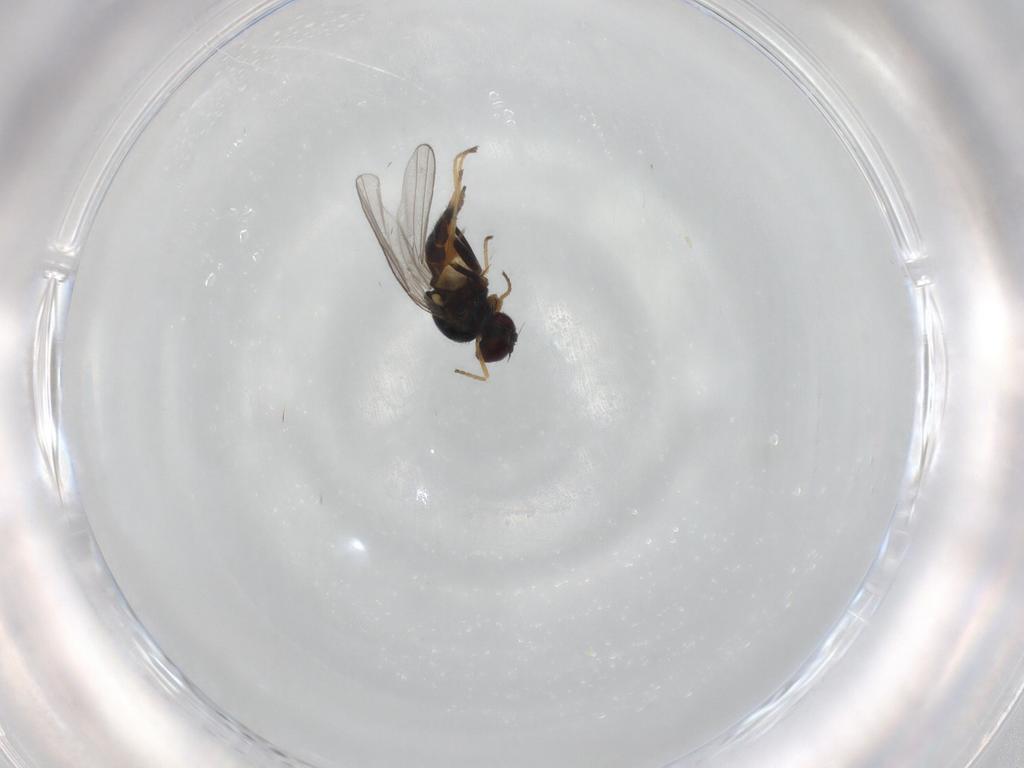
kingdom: Animalia
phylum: Arthropoda
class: Insecta
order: Diptera
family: Chloropidae
